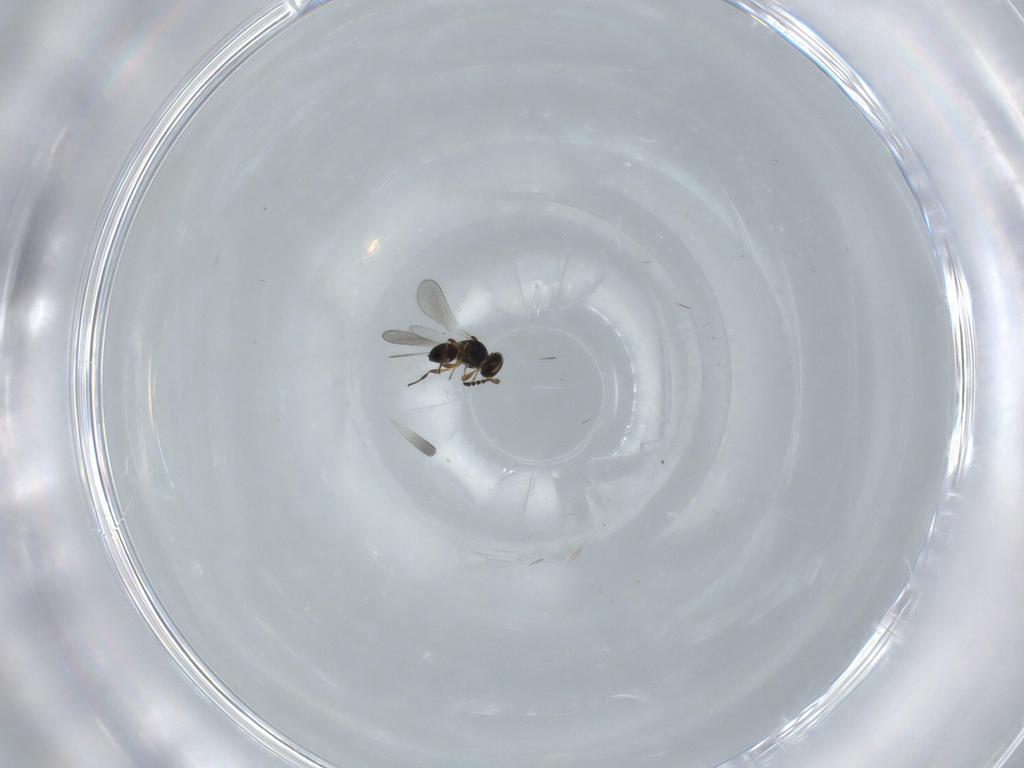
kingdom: Animalia
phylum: Arthropoda
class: Insecta
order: Hymenoptera
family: Platygastridae
